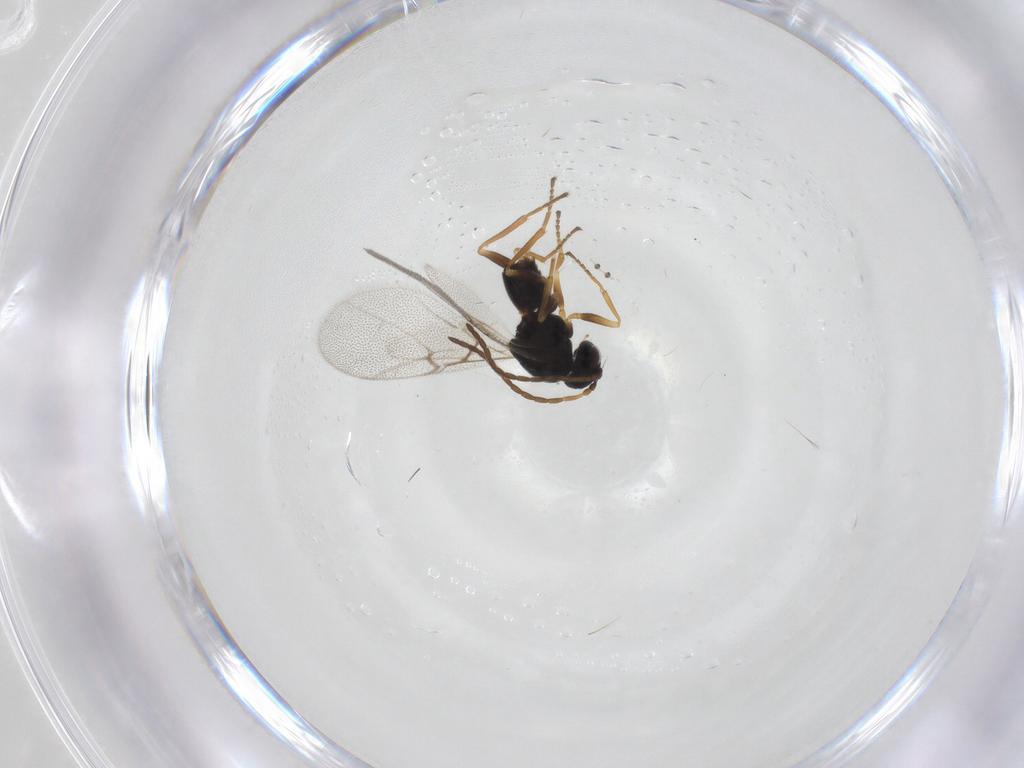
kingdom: Animalia
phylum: Arthropoda
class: Insecta
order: Hymenoptera
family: Cynipidae
